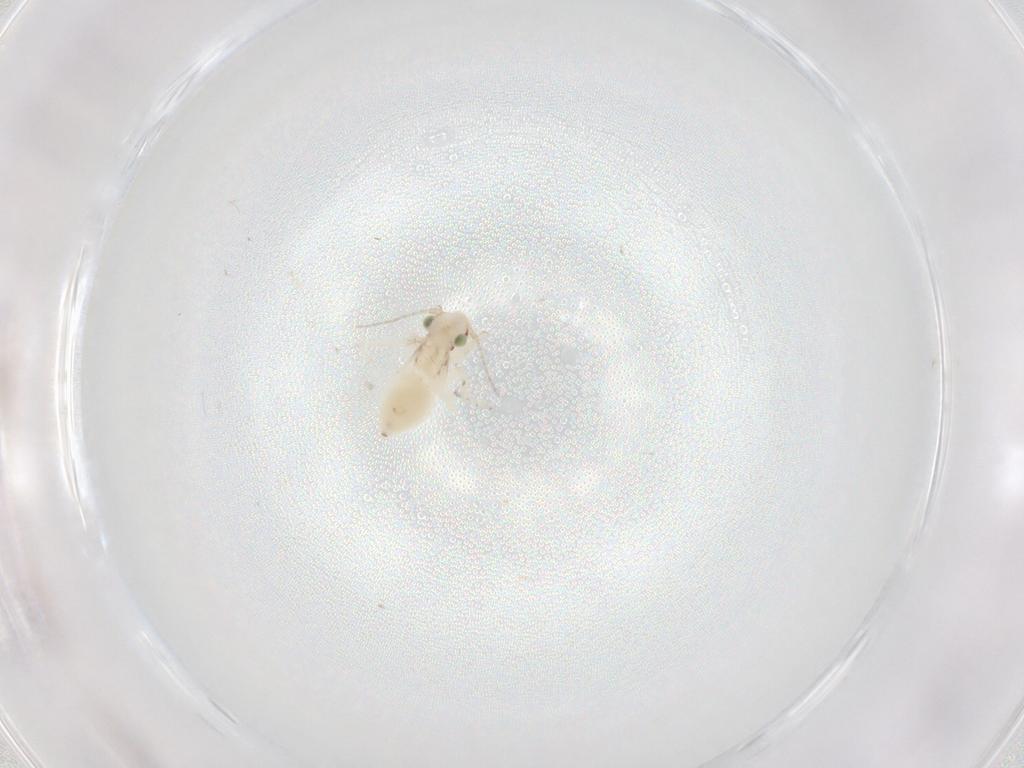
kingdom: Animalia
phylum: Arthropoda
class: Insecta
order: Psocodea
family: Lepidopsocidae
